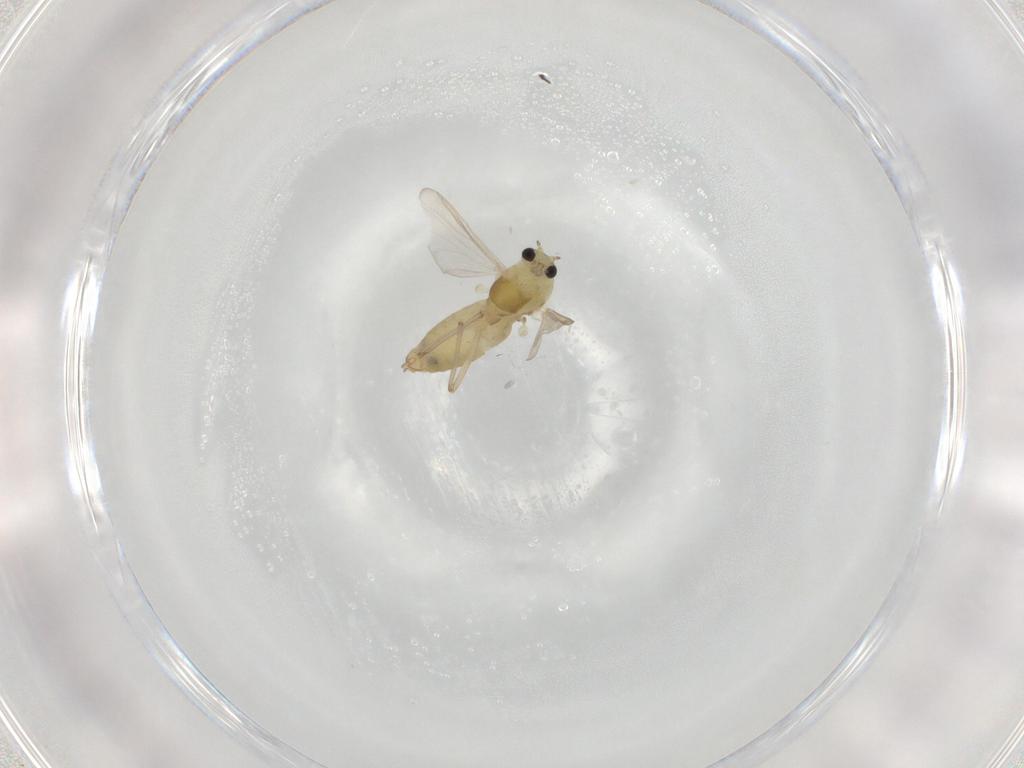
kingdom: Animalia
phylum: Arthropoda
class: Insecta
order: Diptera
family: Chironomidae
